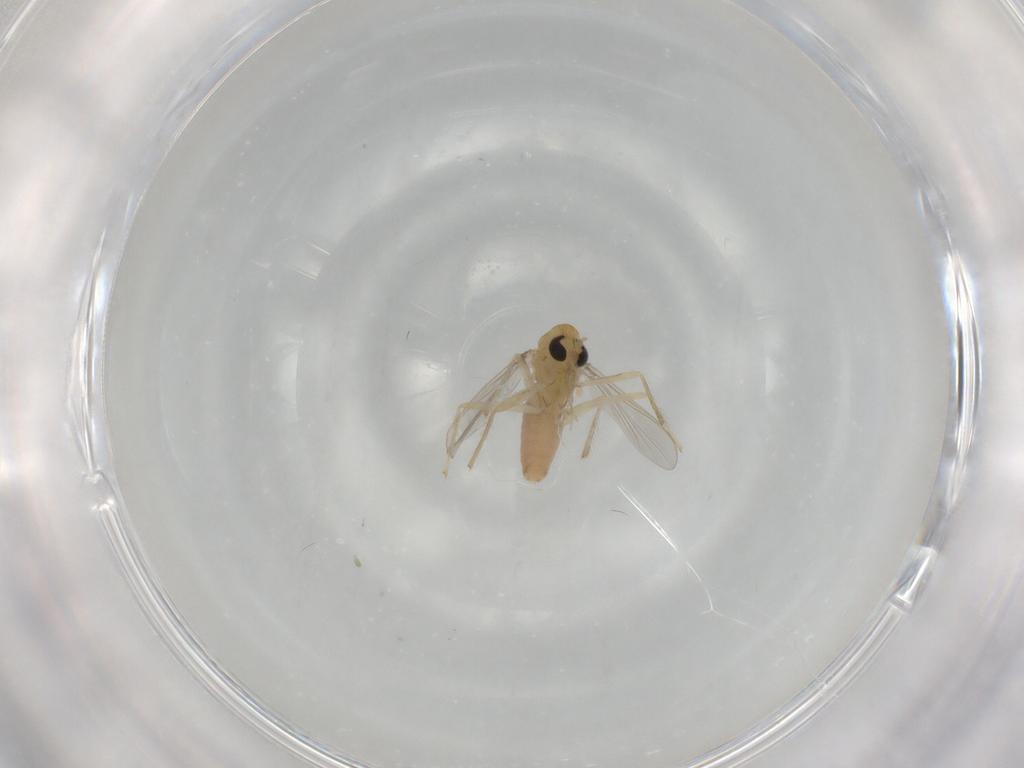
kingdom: Animalia
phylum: Arthropoda
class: Insecta
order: Diptera
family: Chironomidae
